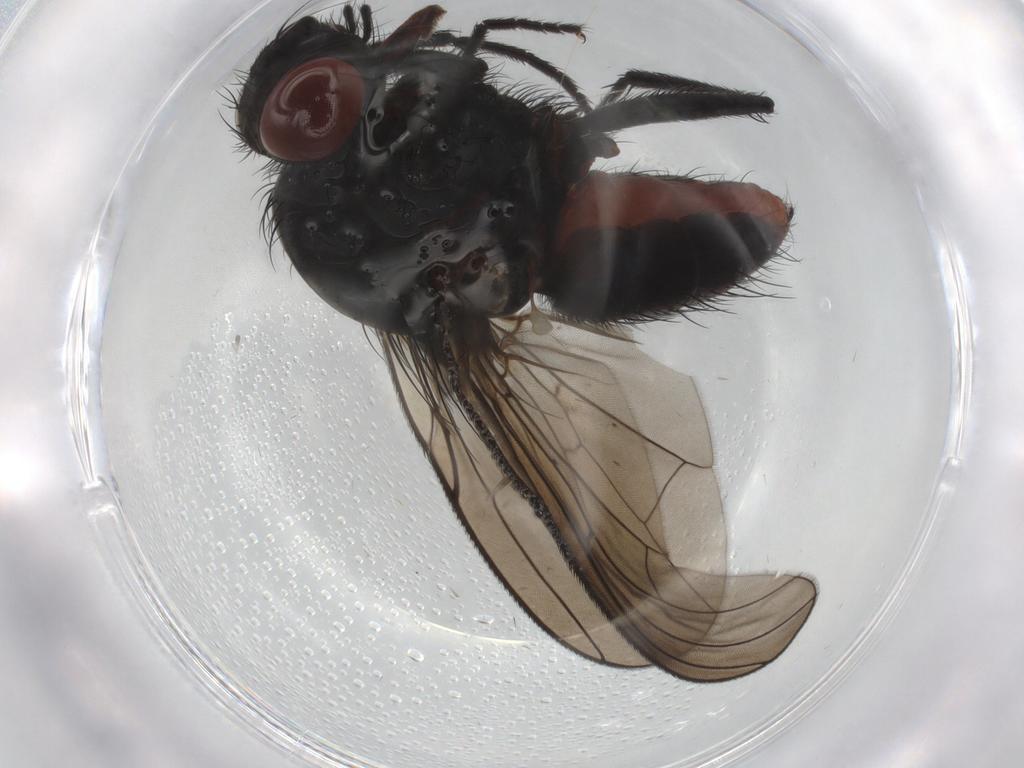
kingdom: Animalia
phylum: Arthropoda
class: Insecta
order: Diptera
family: Anthomyiidae
